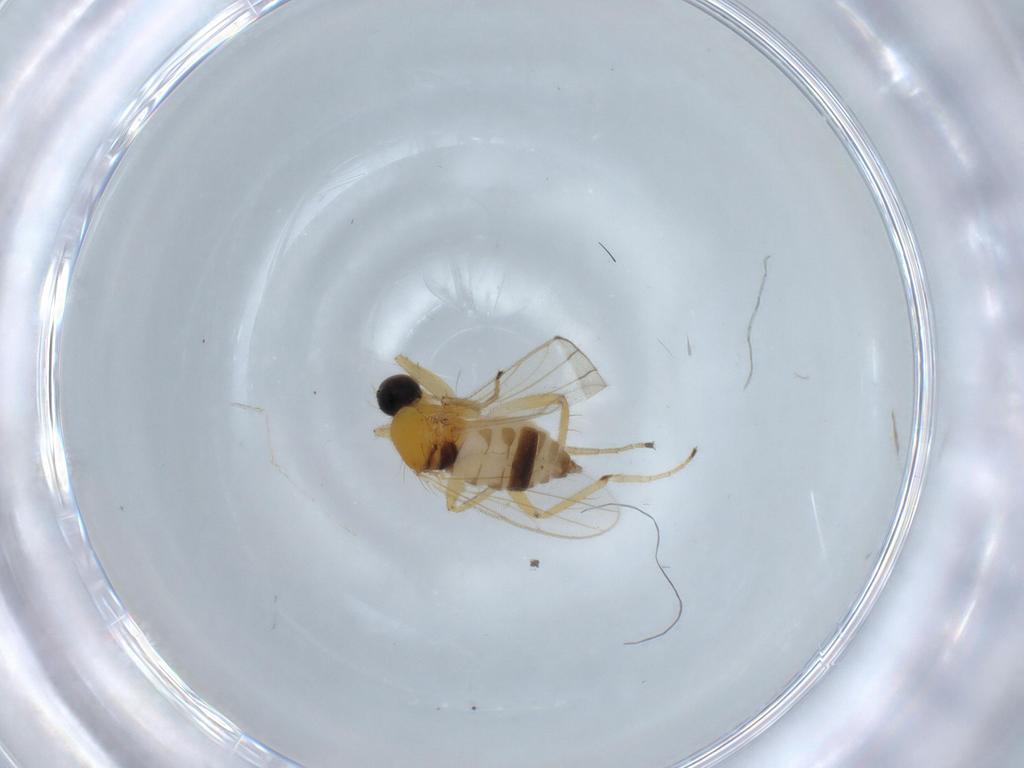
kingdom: Animalia
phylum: Arthropoda
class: Insecta
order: Diptera
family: Hybotidae
